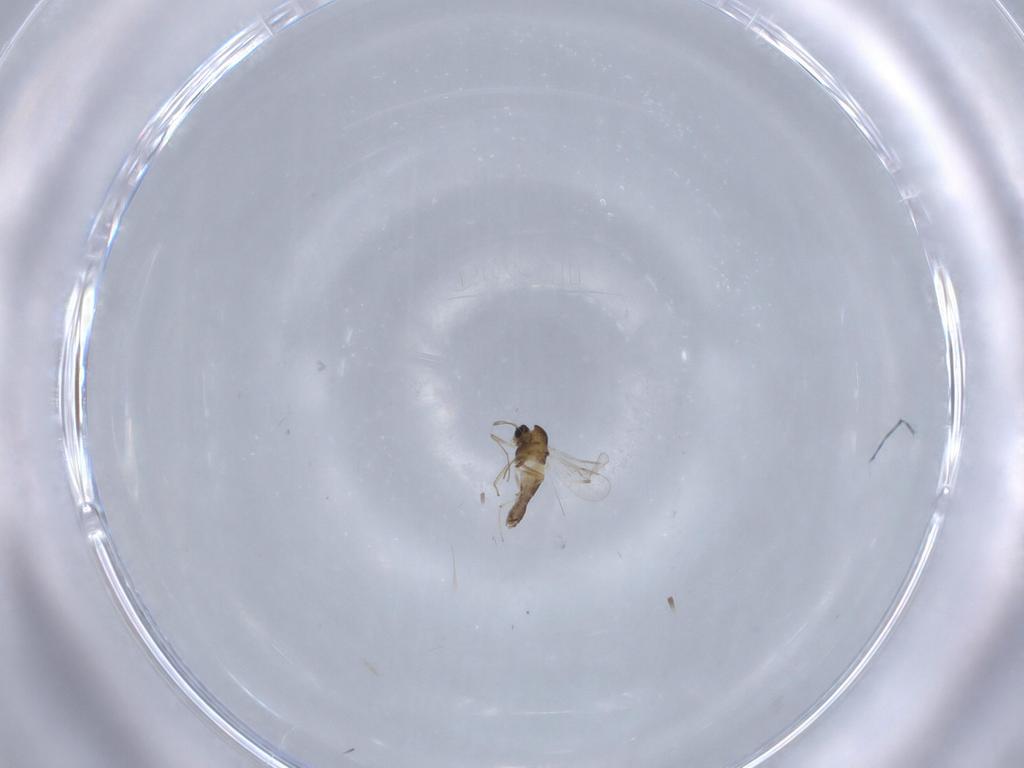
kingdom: Animalia
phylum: Arthropoda
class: Insecta
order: Diptera
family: Chironomidae
